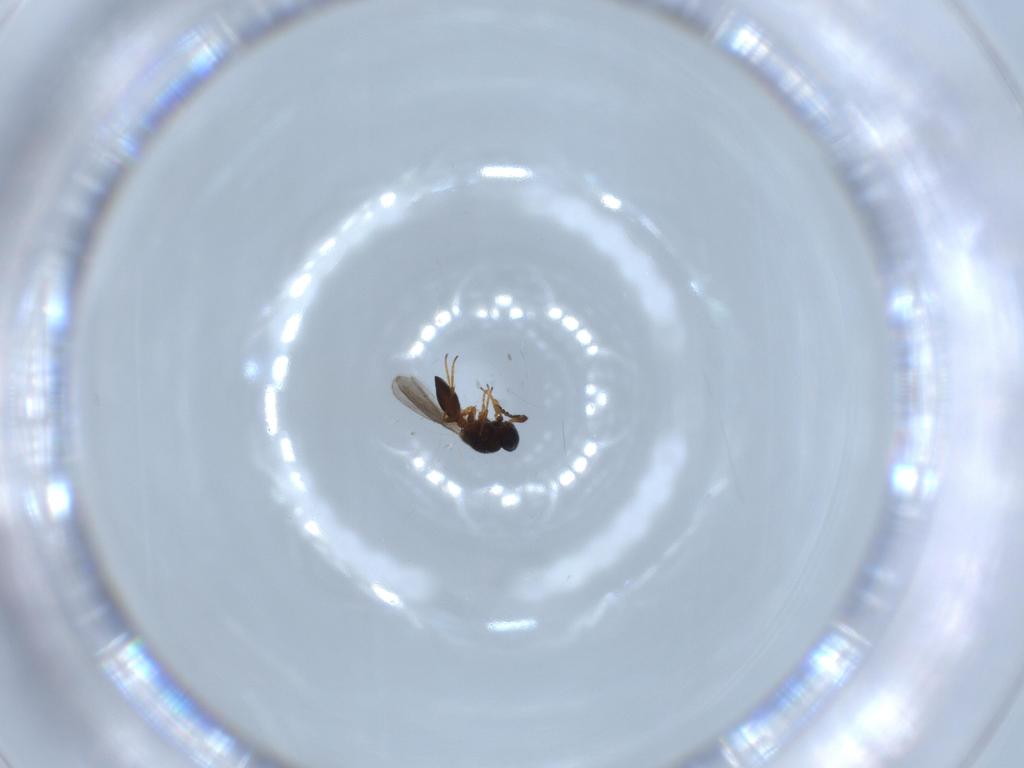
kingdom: Animalia
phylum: Arthropoda
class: Insecta
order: Hymenoptera
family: Platygastridae
